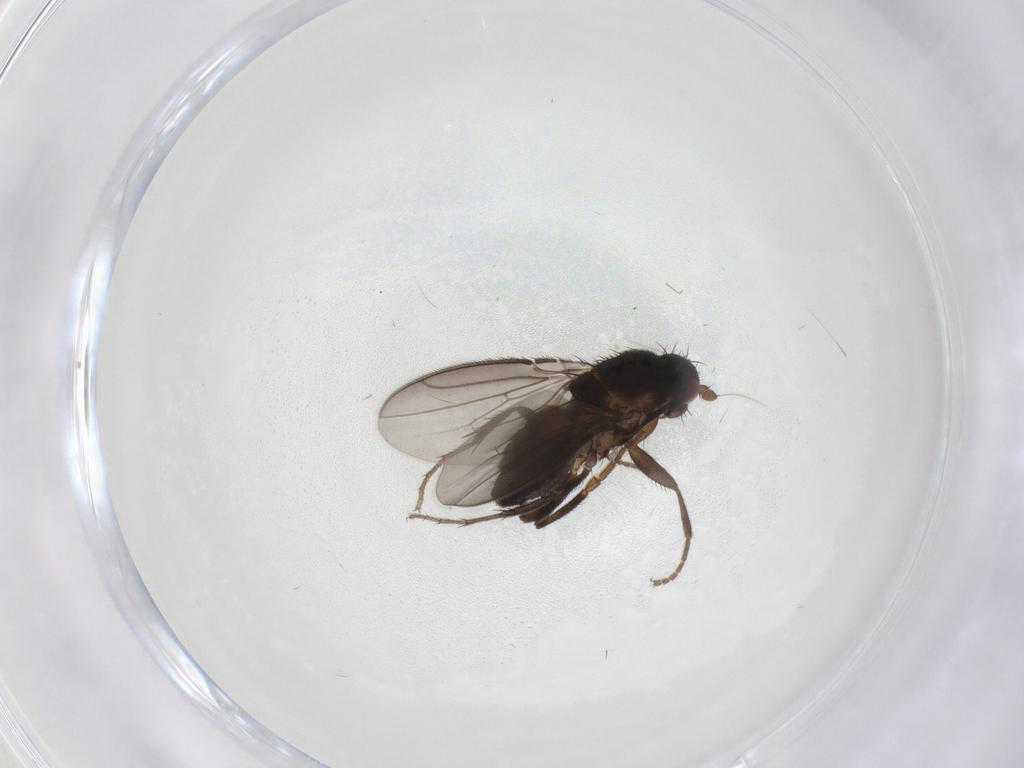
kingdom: Animalia
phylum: Arthropoda
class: Insecta
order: Diptera
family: Sphaeroceridae
